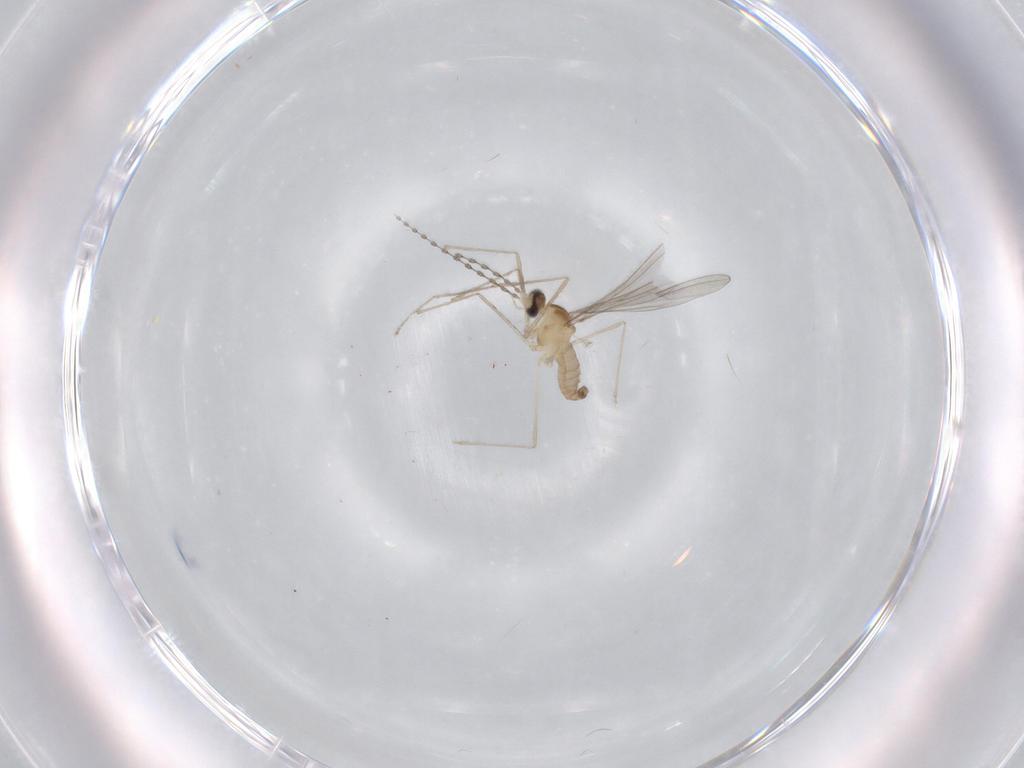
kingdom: Animalia
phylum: Arthropoda
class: Insecta
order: Diptera
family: Cecidomyiidae
